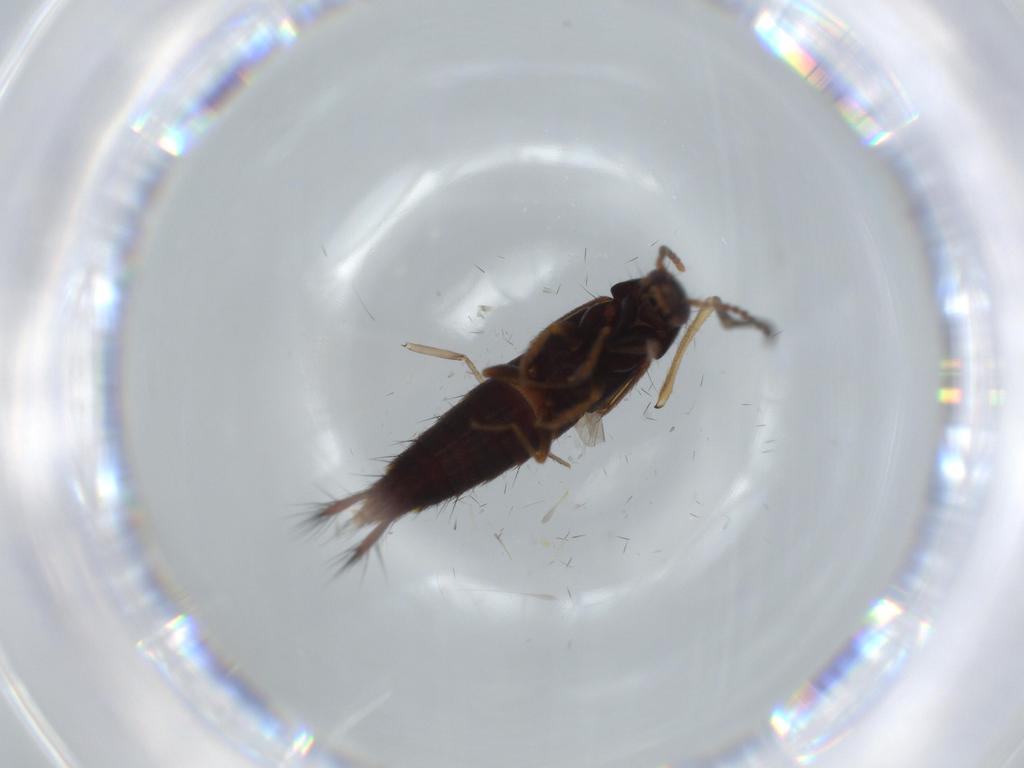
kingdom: Animalia
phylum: Arthropoda
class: Insecta
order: Coleoptera
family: Staphylinidae
